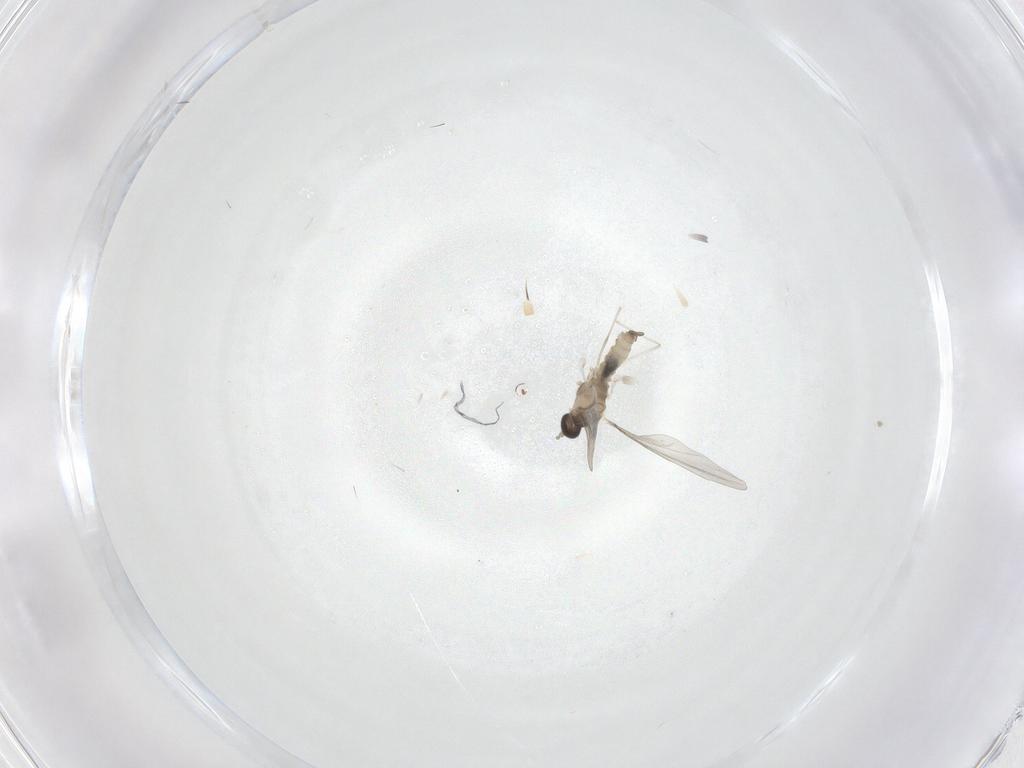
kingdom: Animalia
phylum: Arthropoda
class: Insecta
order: Diptera
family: Cecidomyiidae
